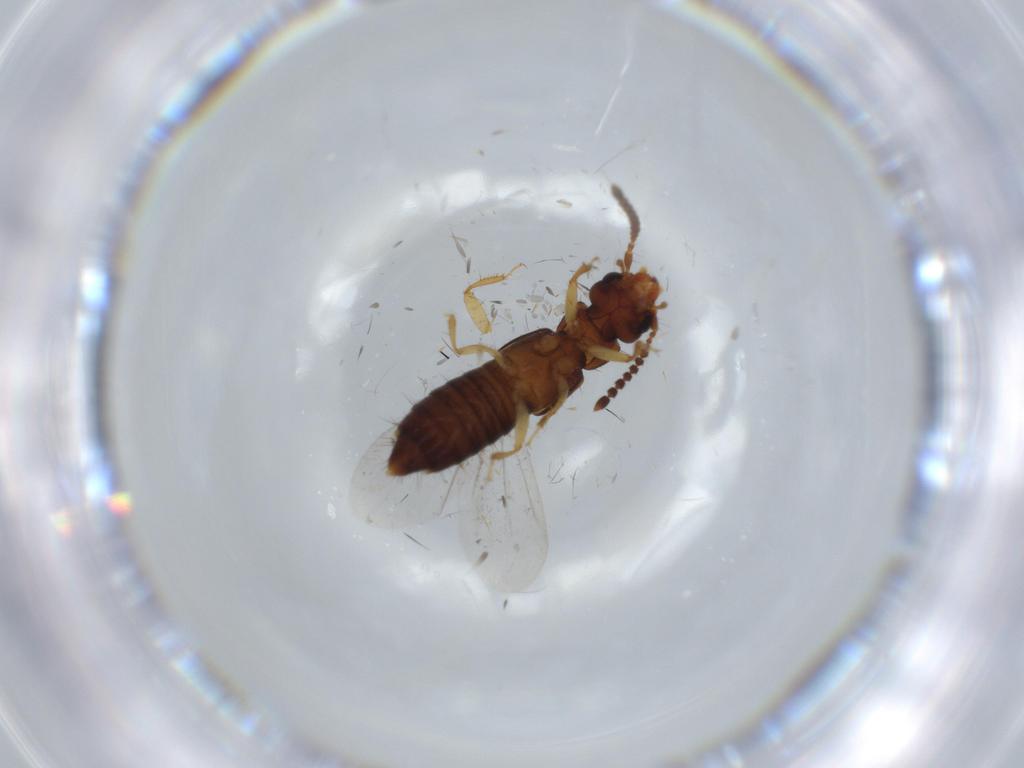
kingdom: Animalia
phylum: Arthropoda
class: Insecta
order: Coleoptera
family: Staphylinidae
